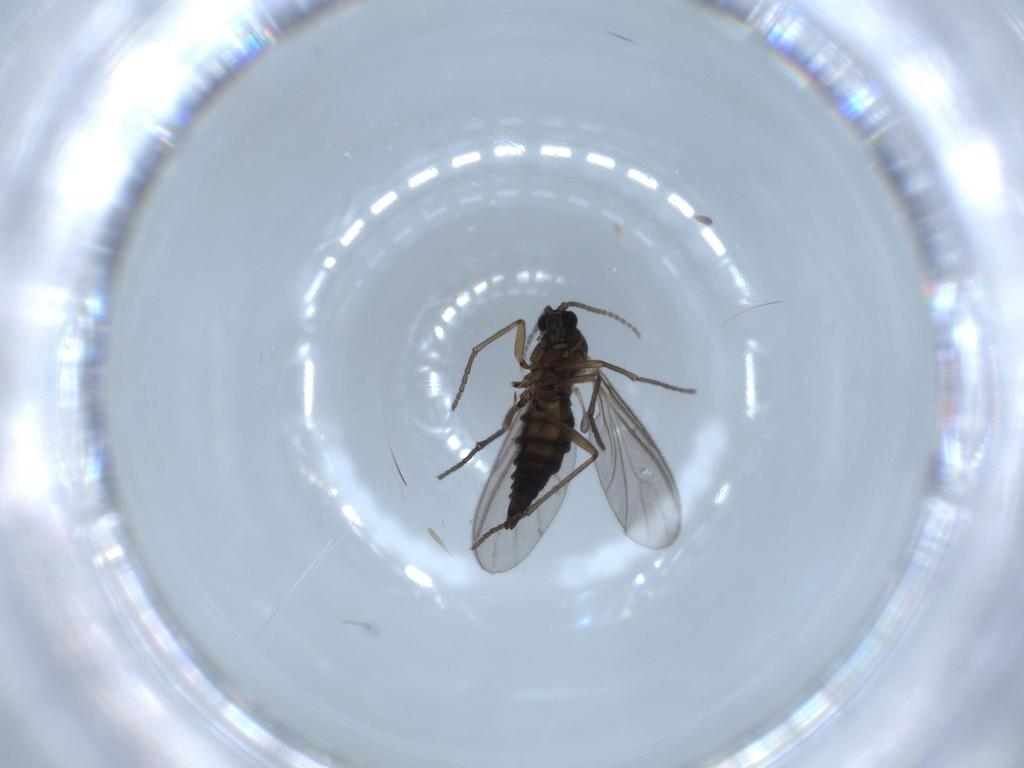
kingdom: Animalia
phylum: Arthropoda
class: Insecta
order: Diptera
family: Sciaridae
